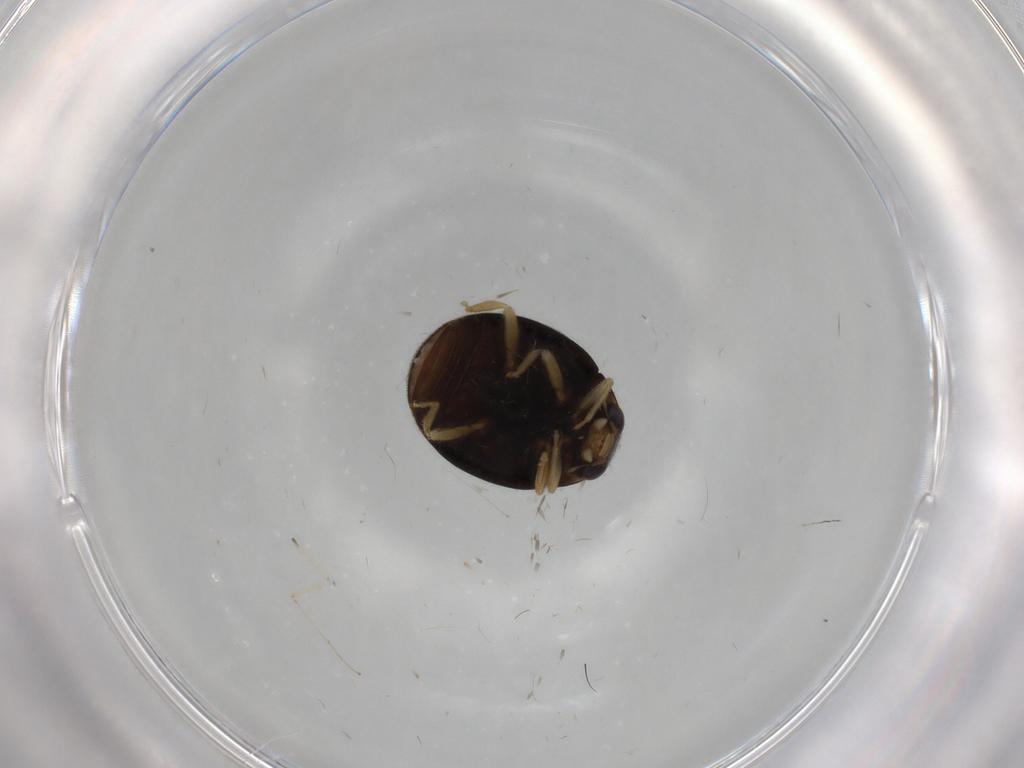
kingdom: Animalia
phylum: Arthropoda
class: Insecta
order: Coleoptera
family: Coccinellidae
